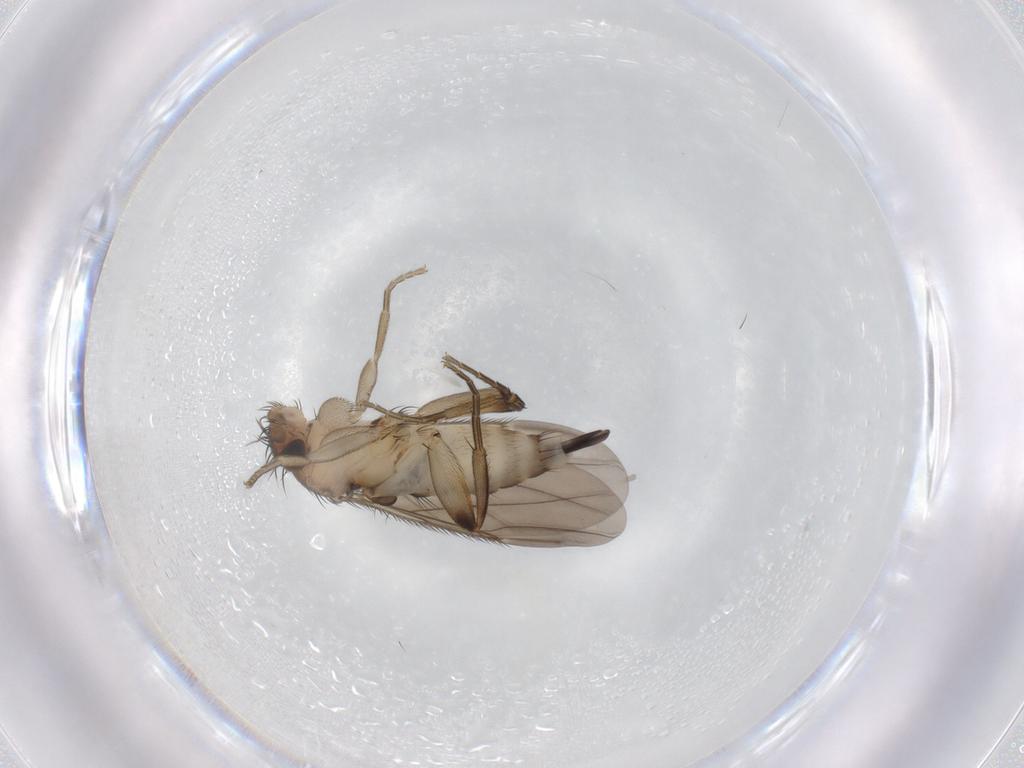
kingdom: Animalia
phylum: Arthropoda
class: Insecta
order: Diptera
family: Phoridae
